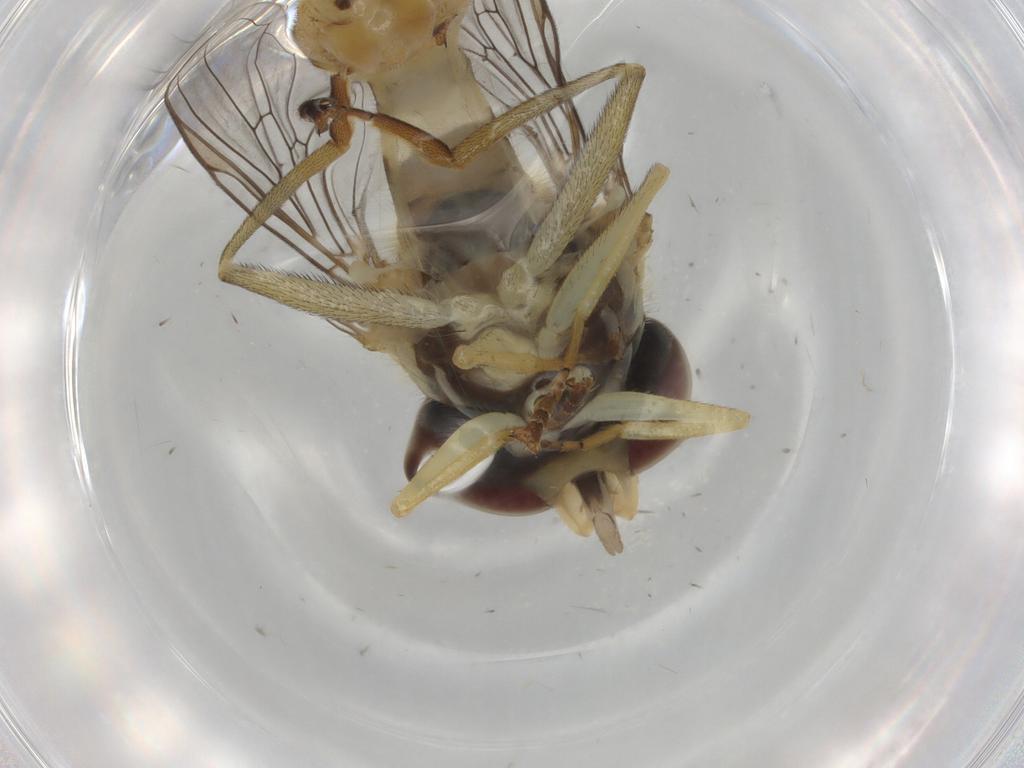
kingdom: Animalia
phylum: Arthropoda
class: Insecta
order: Diptera
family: Syrphidae
